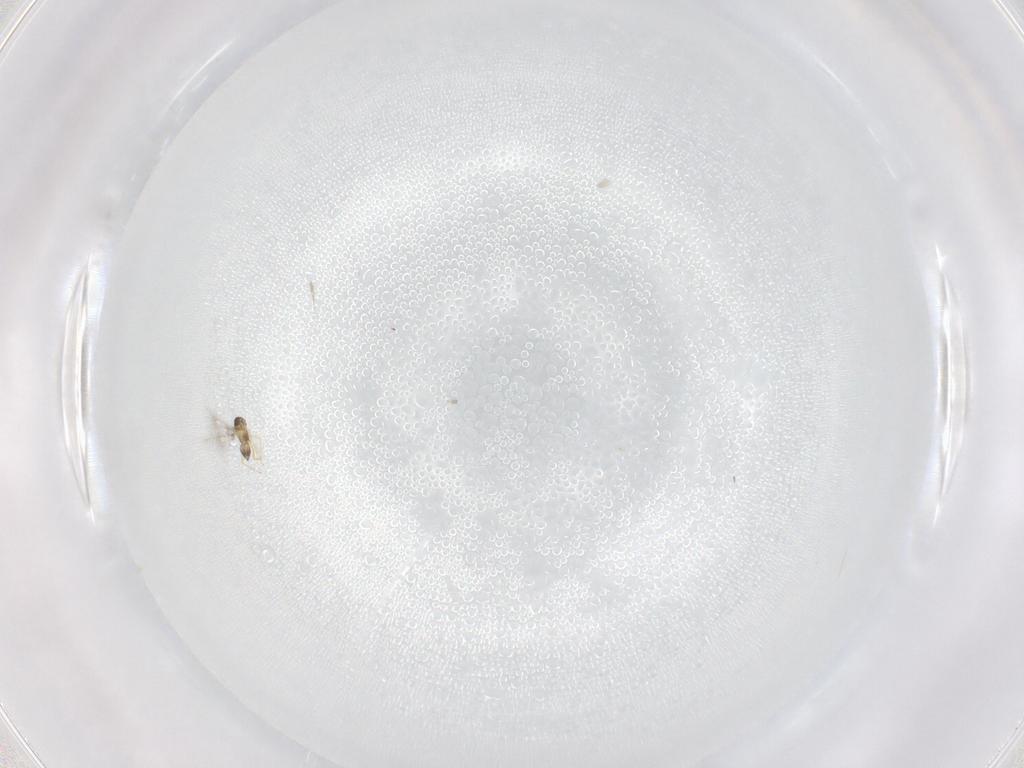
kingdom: Animalia
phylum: Arthropoda
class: Insecta
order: Hymenoptera
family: Mymaridae
